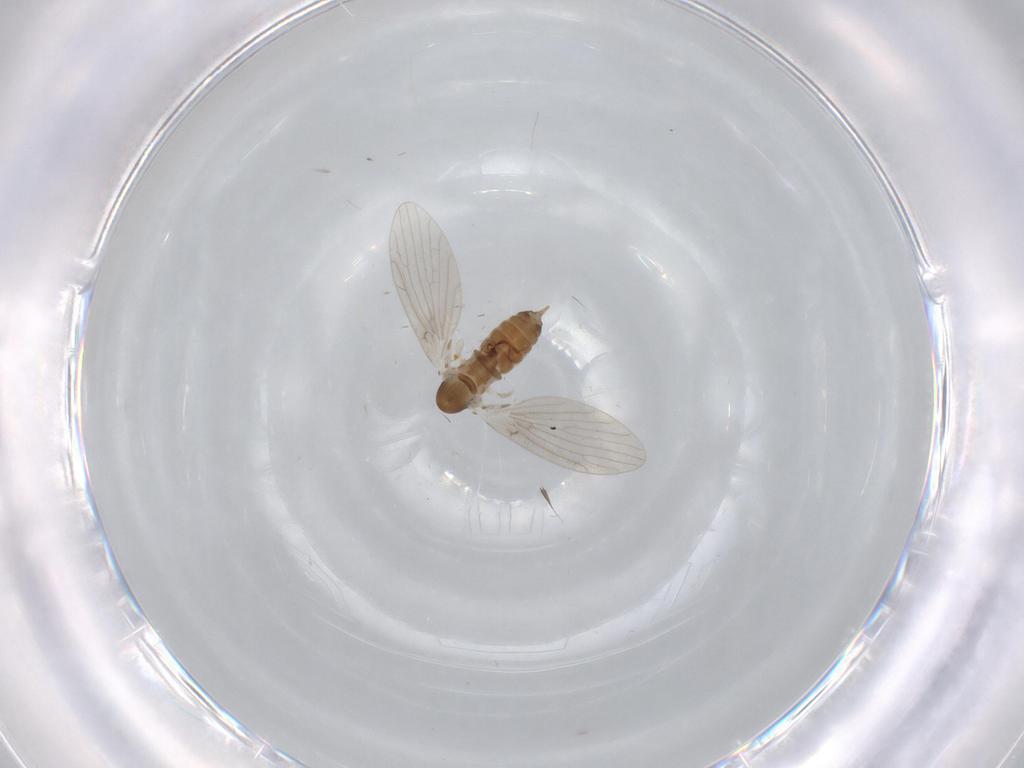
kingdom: Animalia
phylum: Arthropoda
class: Insecta
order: Diptera
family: Psychodidae
